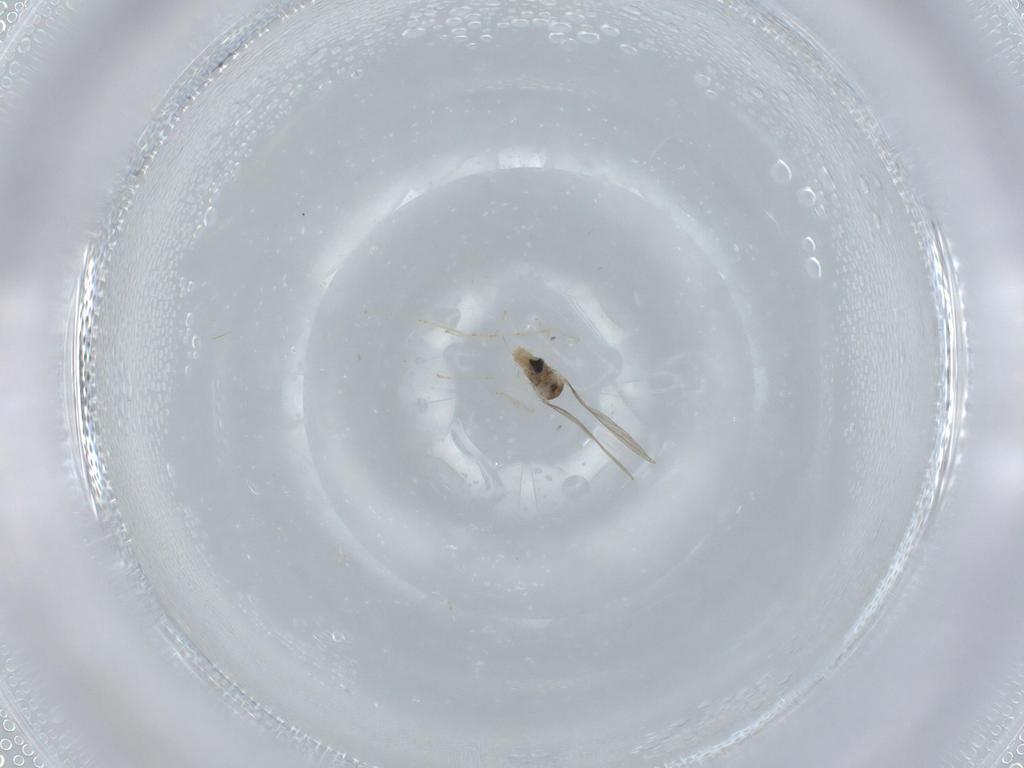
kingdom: Animalia
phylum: Arthropoda
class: Insecta
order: Diptera
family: Cecidomyiidae
